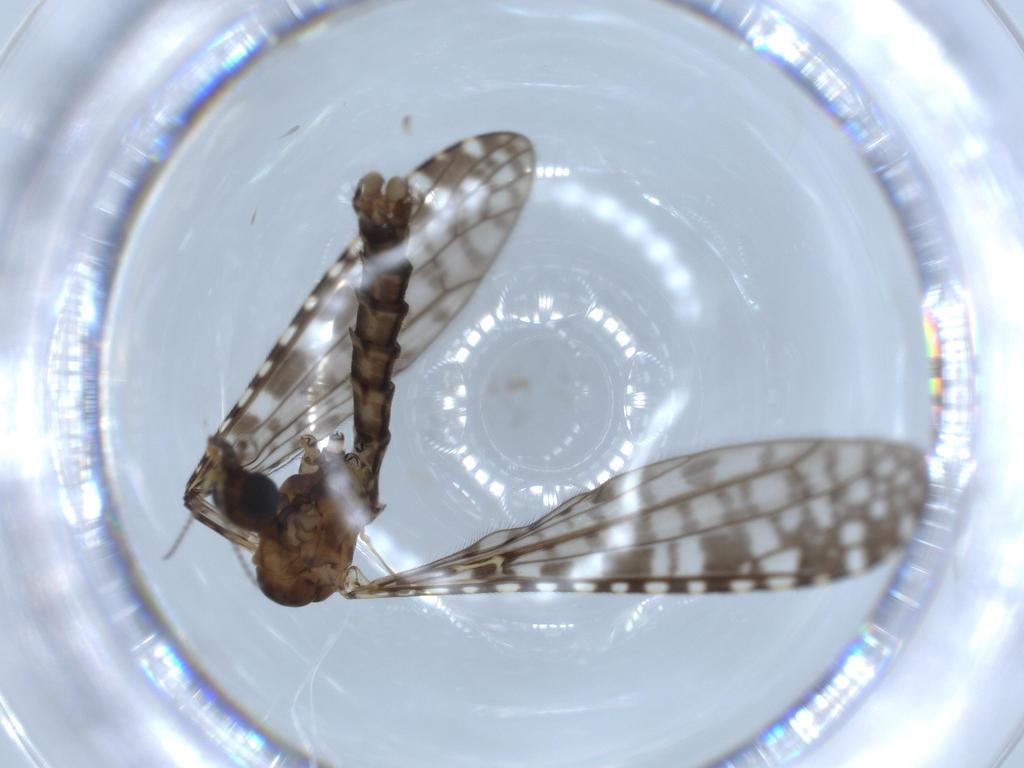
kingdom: Animalia
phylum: Arthropoda
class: Insecta
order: Diptera
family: Limoniidae
